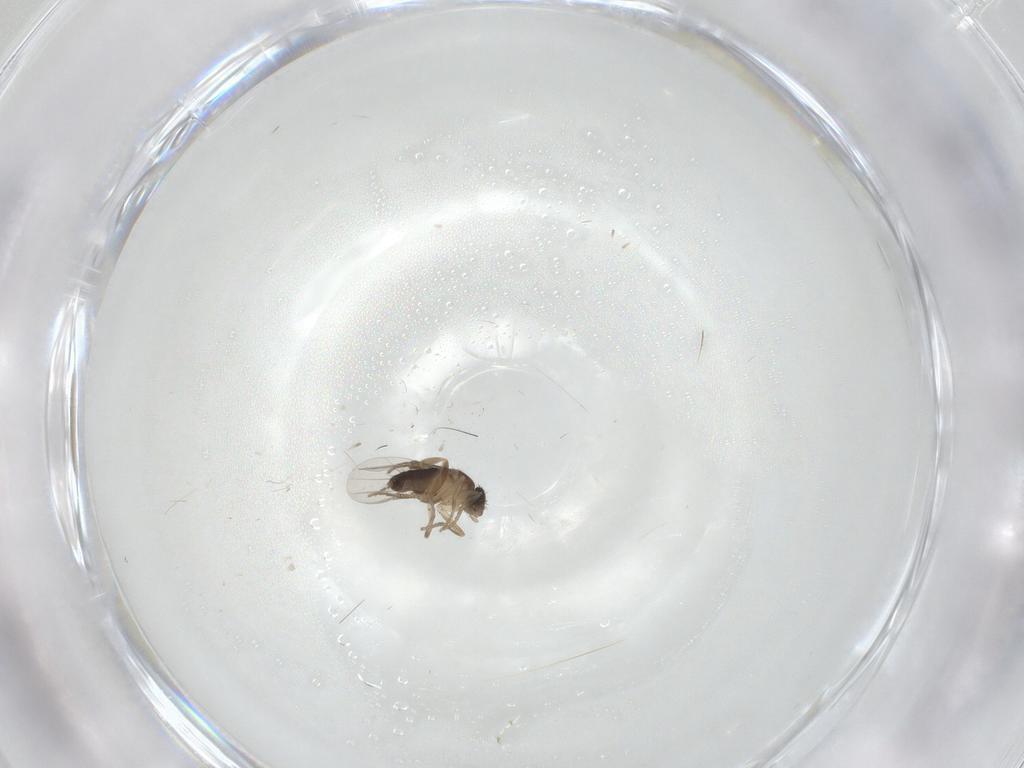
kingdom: Animalia
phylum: Arthropoda
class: Insecta
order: Diptera
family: Phoridae
